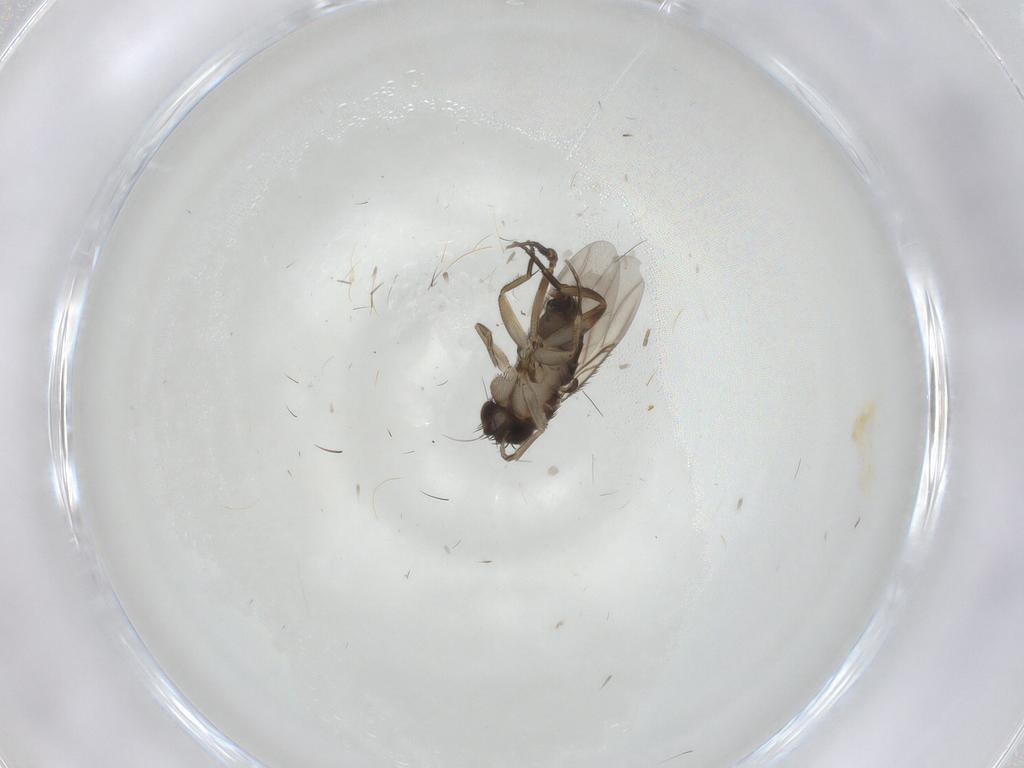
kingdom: Animalia
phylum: Arthropoda
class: Insecta
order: Diptera
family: Phoridae
